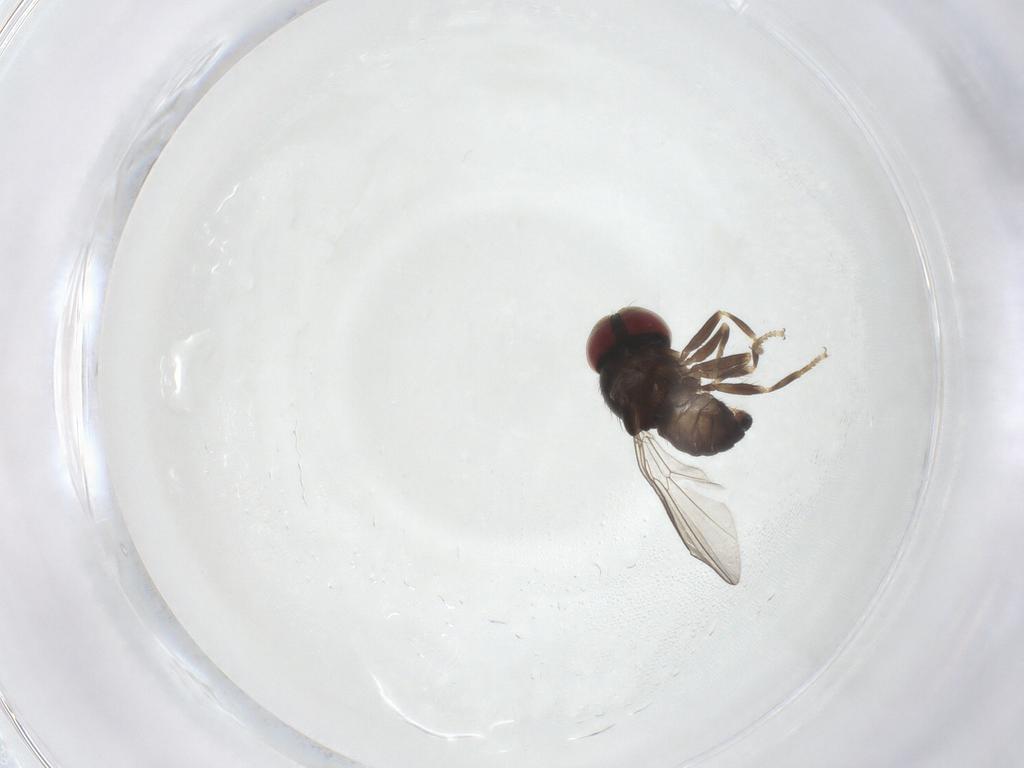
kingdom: Animalia
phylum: Arthropoda
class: Insecta
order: Diptera
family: Pipunculidae
